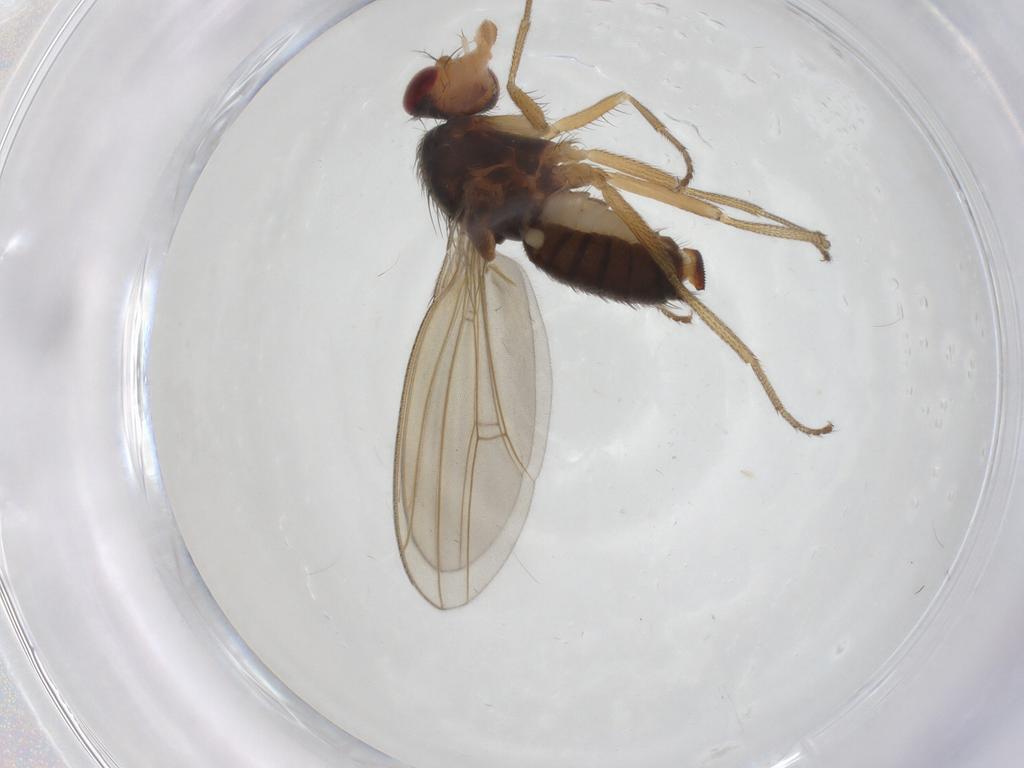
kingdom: Animalia
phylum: Arthropoda
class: Insecta
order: Diptera
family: Drosophilidae
